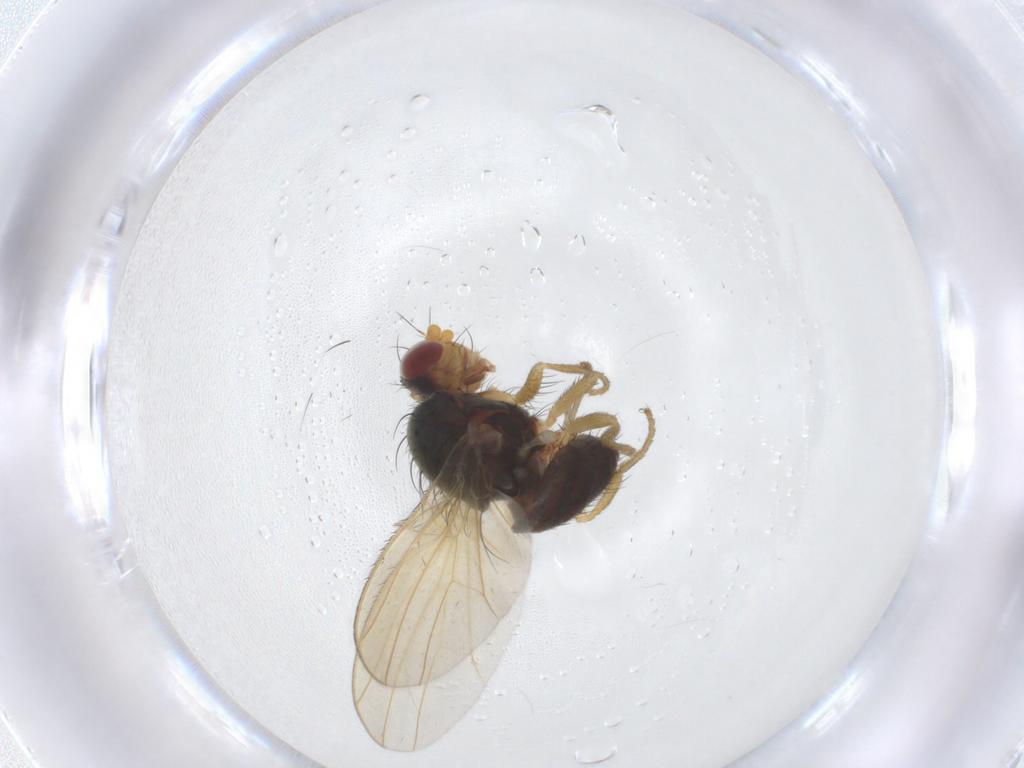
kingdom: Animalia
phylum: Arthropoda
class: Insecta
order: Diptera
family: Heleomyzidae
